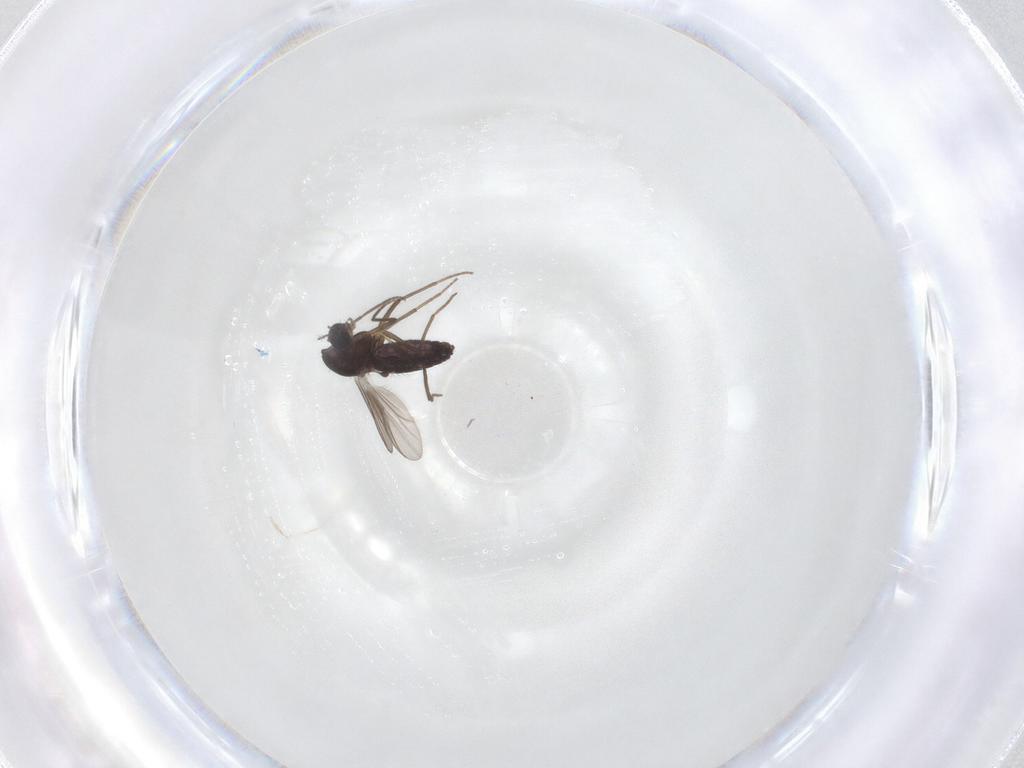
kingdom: Animalia
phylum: Arthropoda
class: Insecta
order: Diptera
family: Chironomidae
